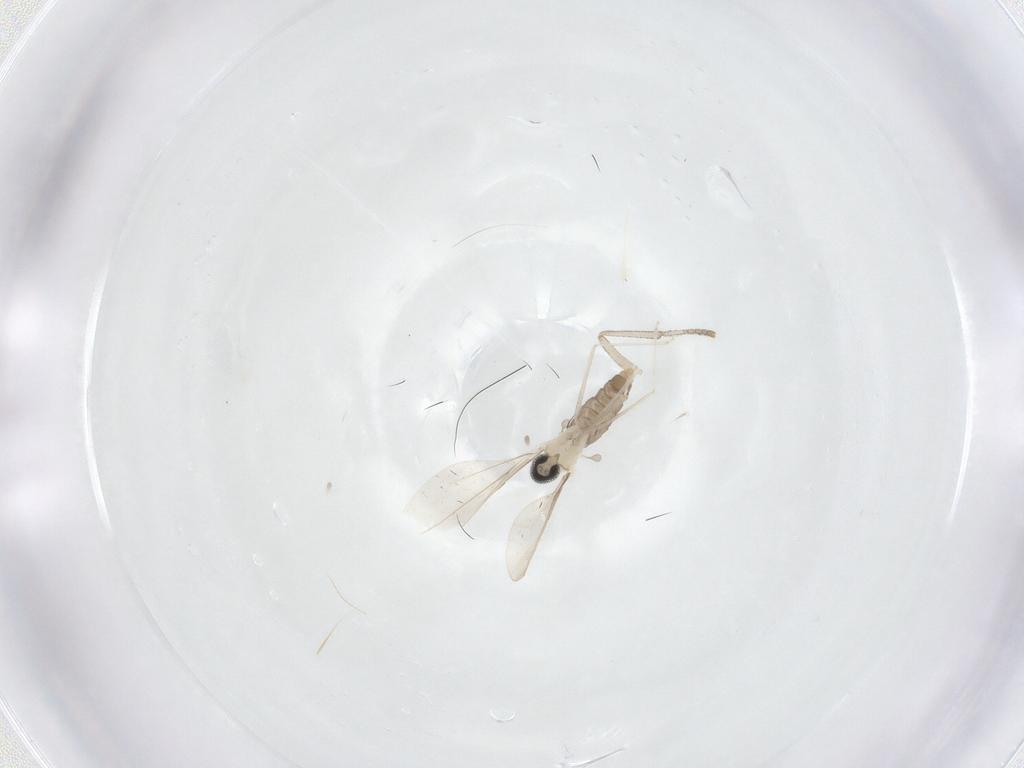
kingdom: Animalia
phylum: Arthropoda
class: Insecta
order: Diptera
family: Cecidomyiidae
